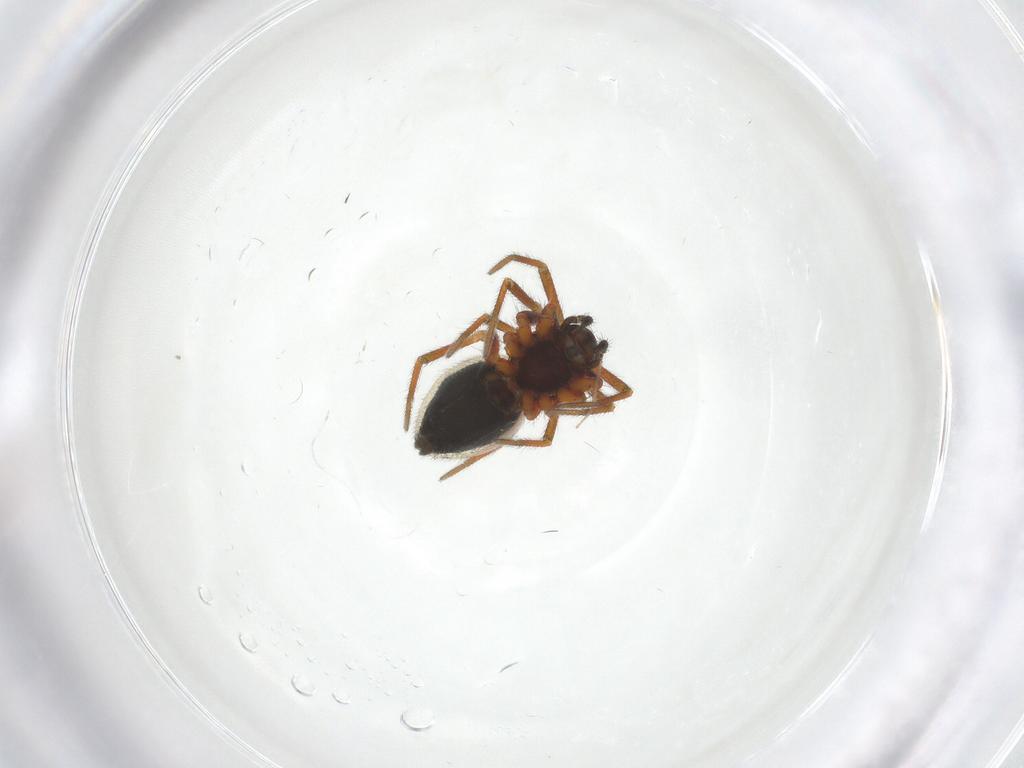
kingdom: Animalia
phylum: Arthropoda
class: Arachnida
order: Araneae
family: Linyphiidae
